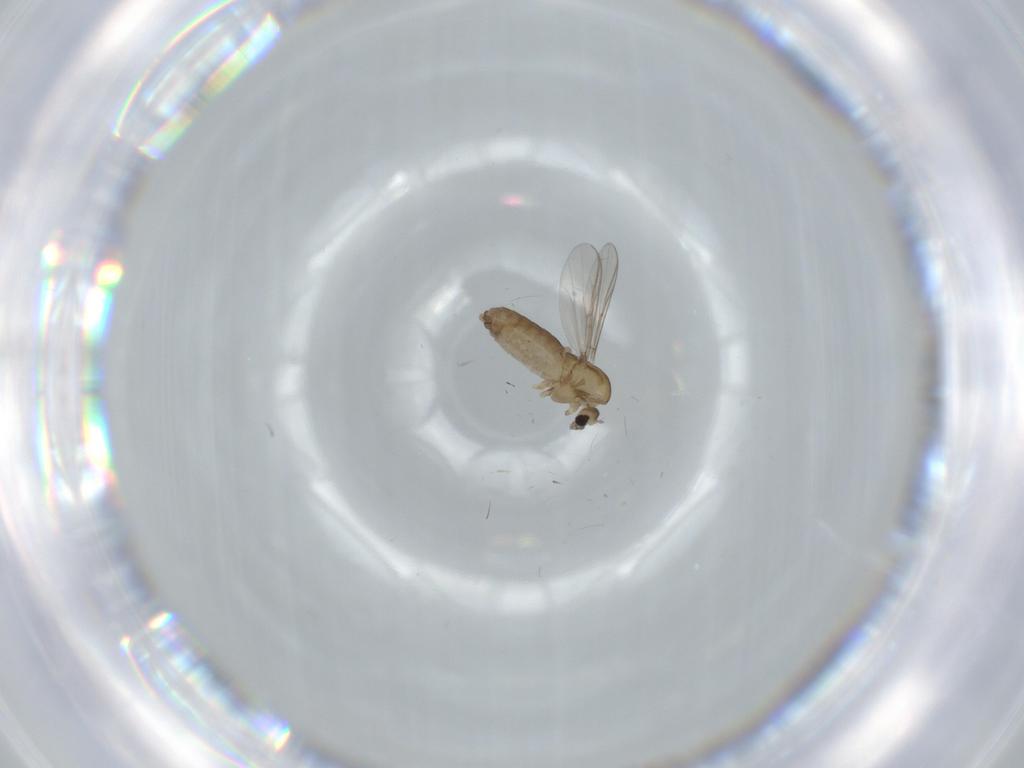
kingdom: Animalia
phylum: Arthropoda
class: Insecta
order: Diptera
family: Chironomidae
